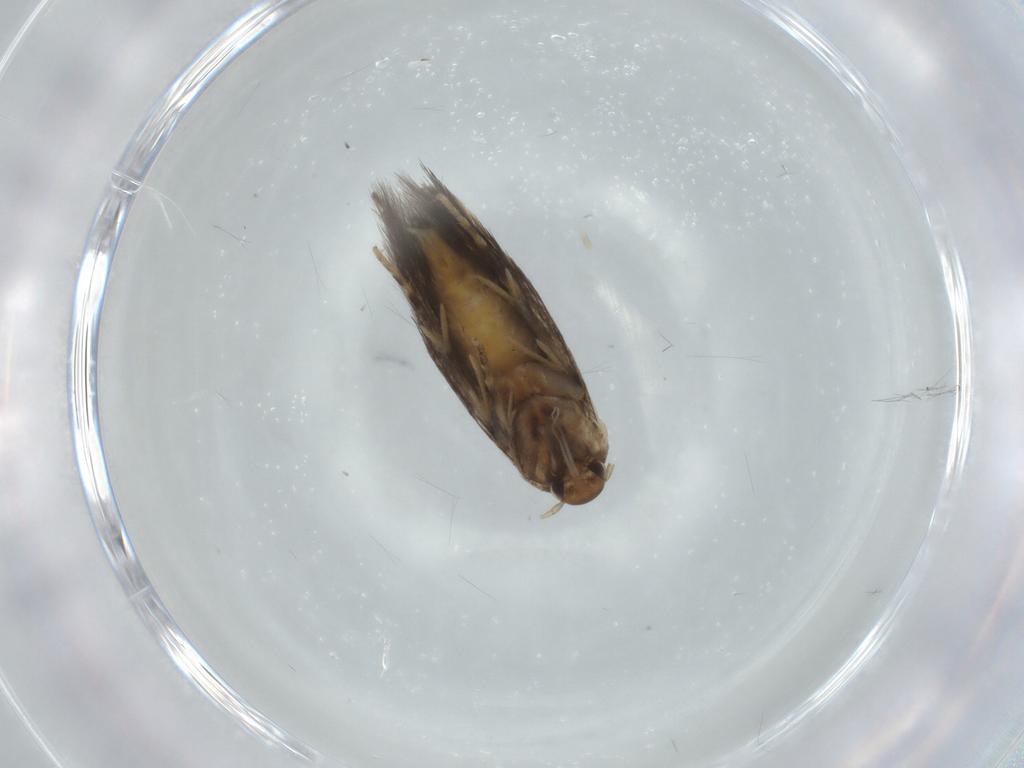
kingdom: Animalia
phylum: Arthropoda
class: Insecta
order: Lepidoptera
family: Elachistidae
